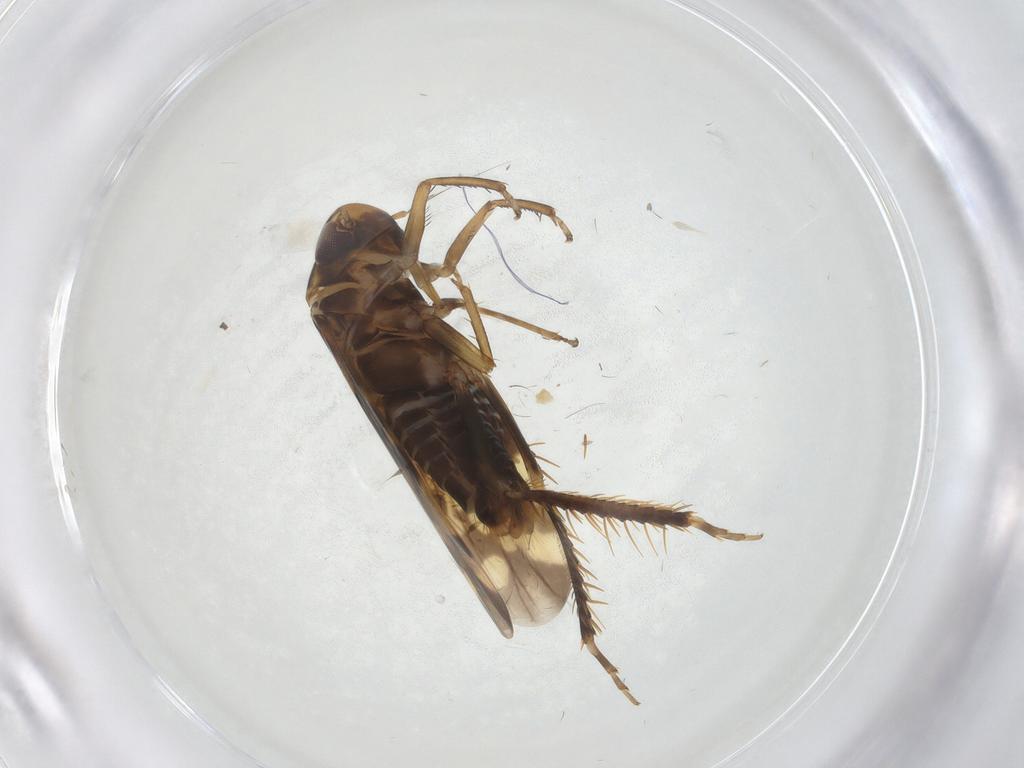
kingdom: Animalia
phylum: Arthropoda
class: Insecta
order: Hemiptera
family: Cicadellidae
